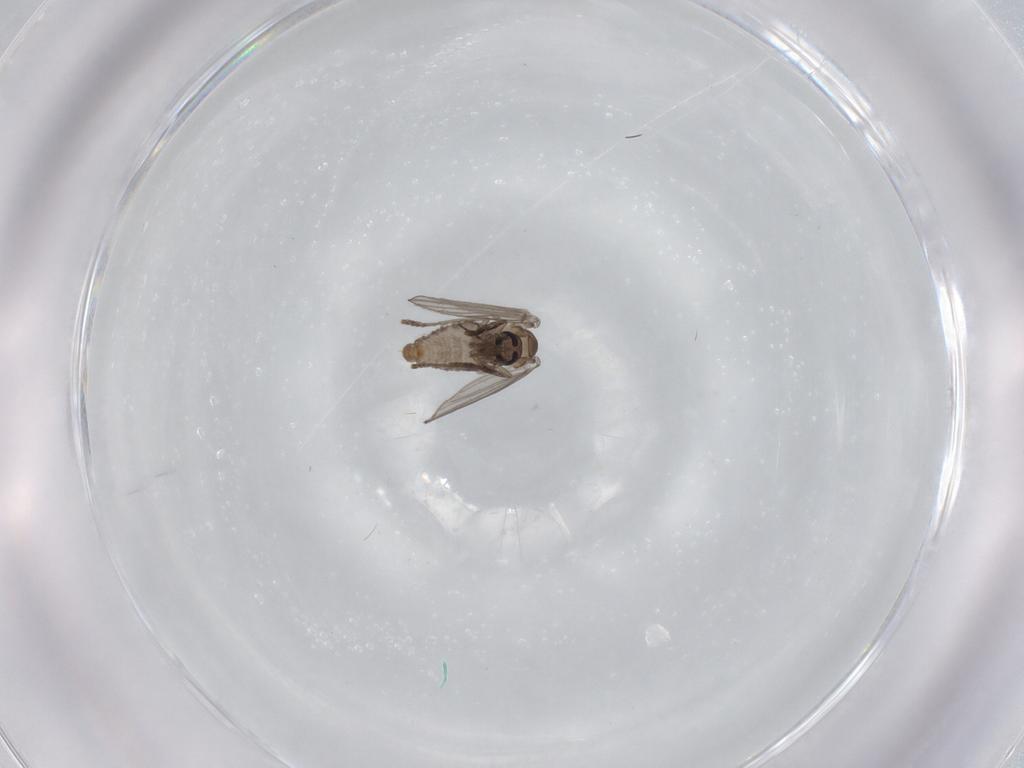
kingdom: Animalia
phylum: Arthropoda
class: Insecta
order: Diptera
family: Psychodidae
